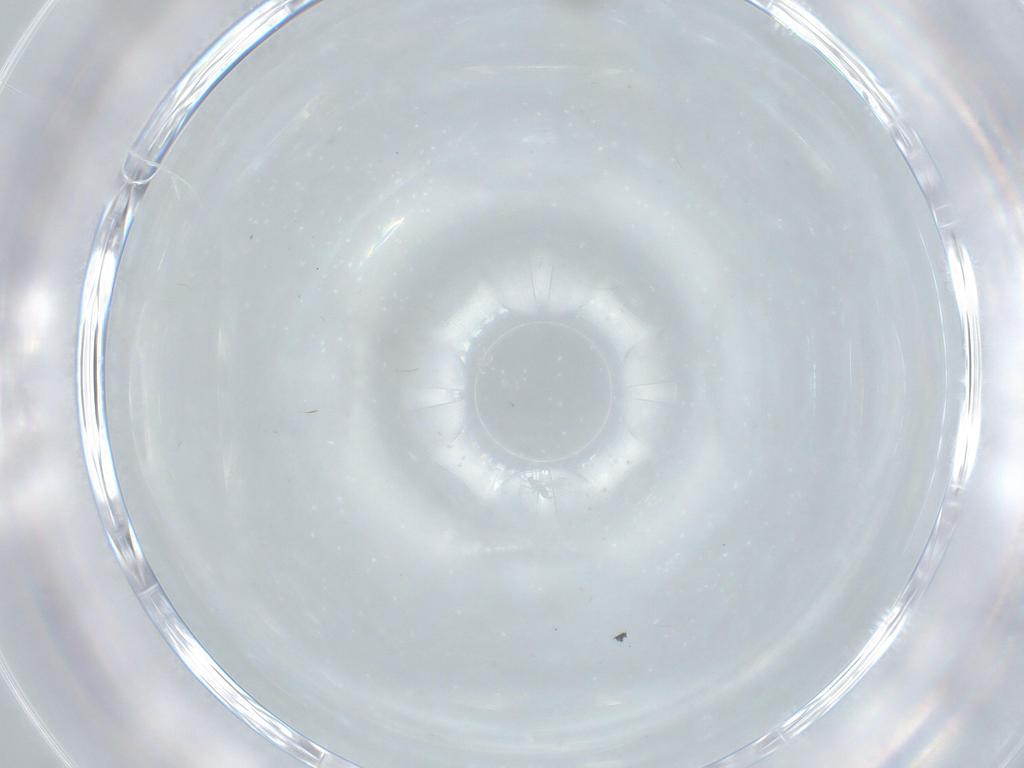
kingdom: Animalia
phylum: Arthropoda
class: Insecta
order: Diptera
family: Cecidomyiidae
